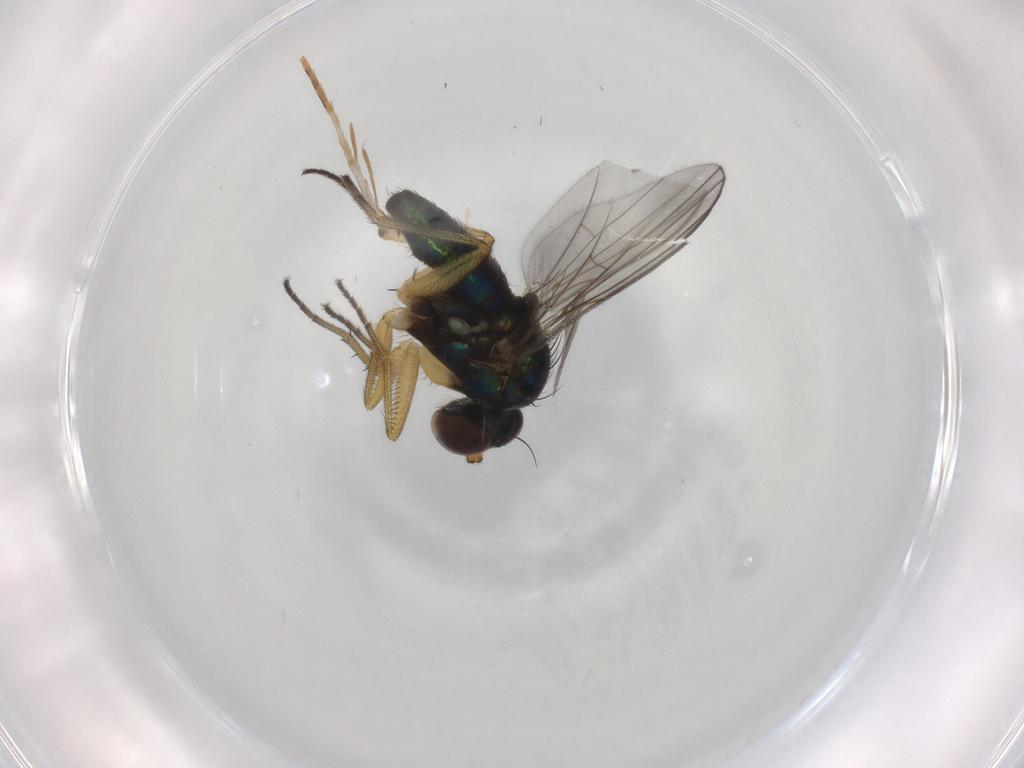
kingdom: Animalia
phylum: Arthropoda
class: Insecta
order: Diptera
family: Dolichopodidae
